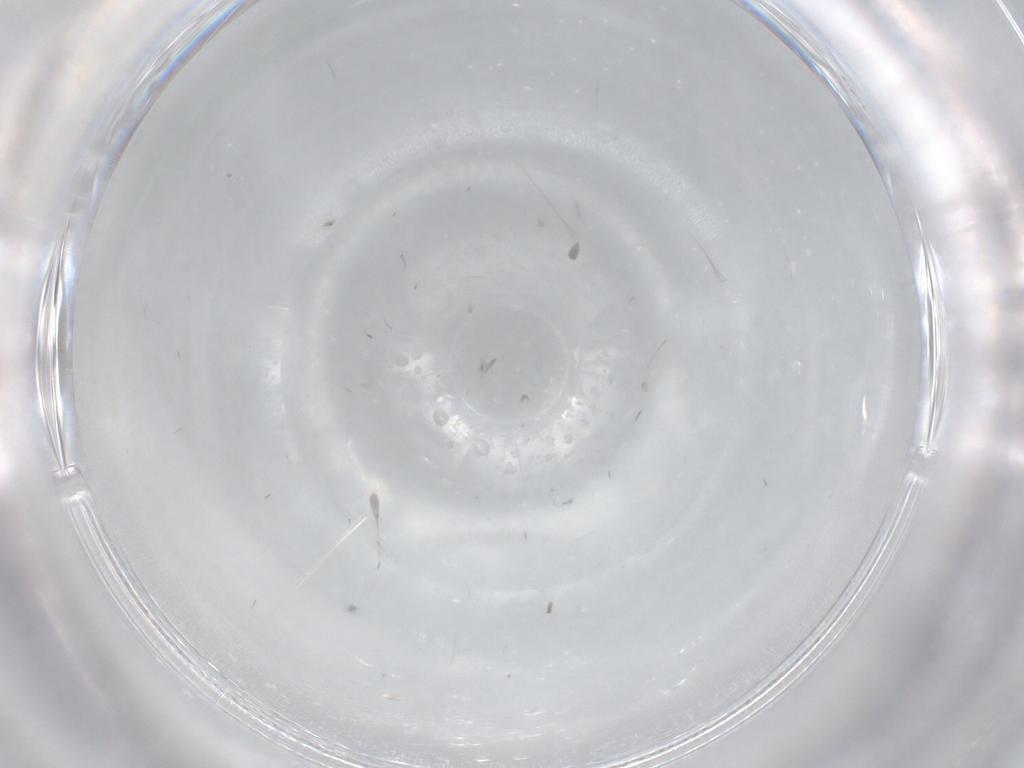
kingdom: Animalia
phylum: Arthropoda
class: Insecta
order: Diptera
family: Cecidomyiidae
